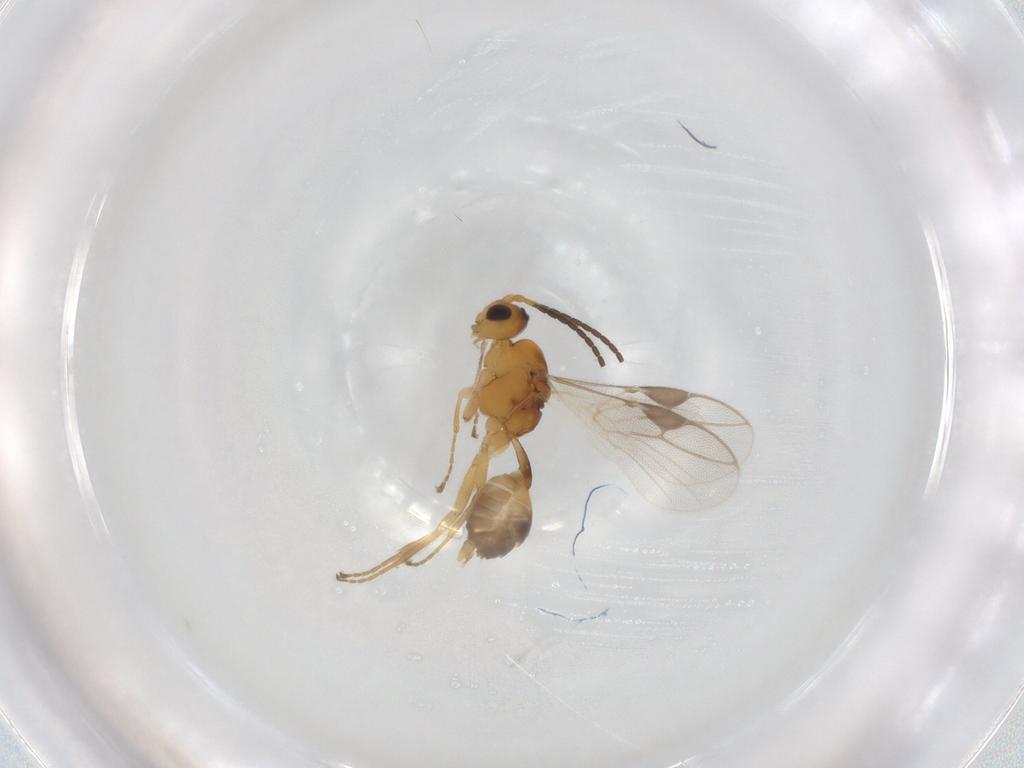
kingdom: Animalia
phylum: Arthropoda
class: Insecta
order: Hymenoptera
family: Braconidae
